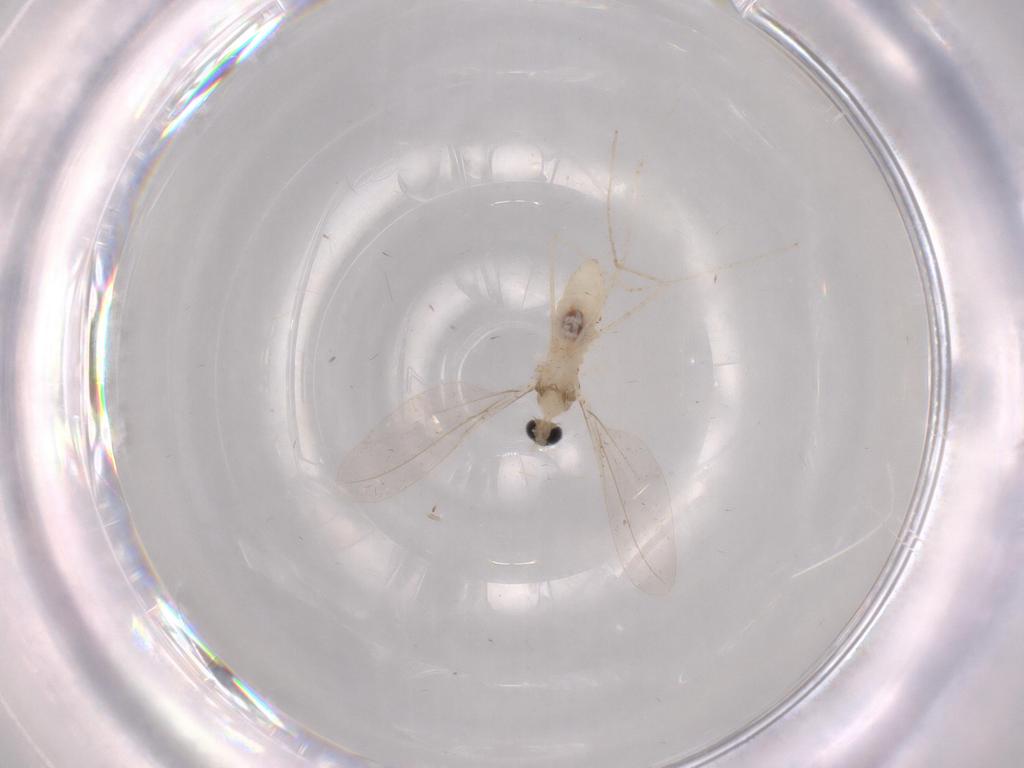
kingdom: Animalia
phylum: Arthropoda
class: Insecta
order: Diptera
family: Cecidomyiidae
